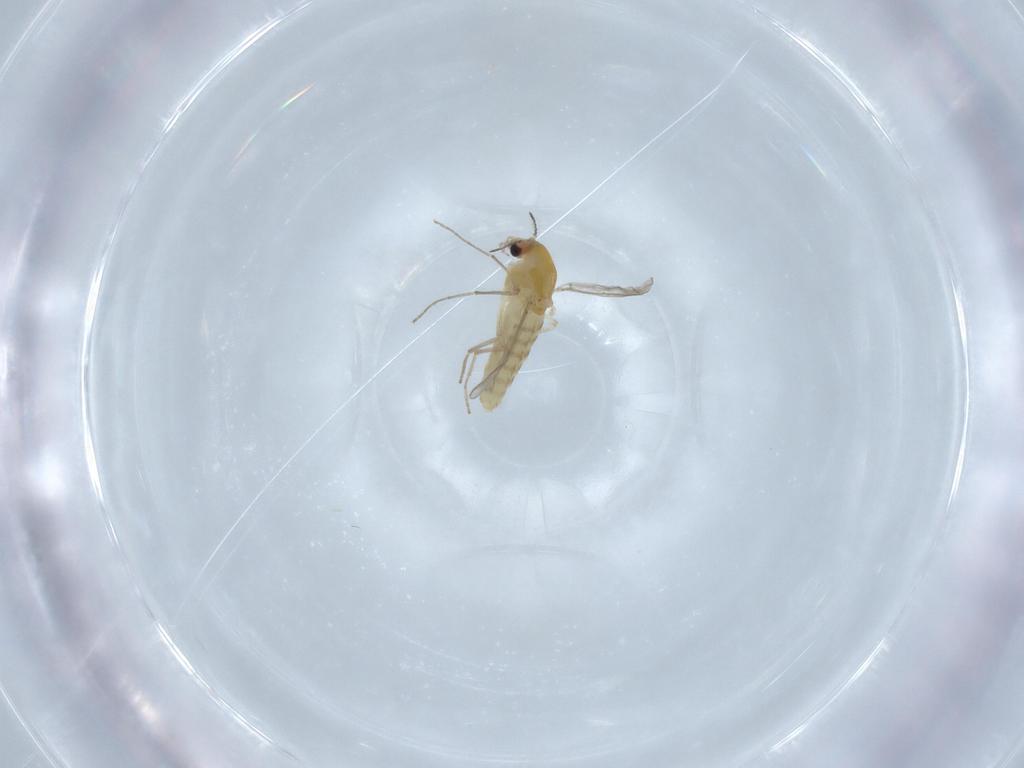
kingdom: Animalia
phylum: Arthropoda
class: Insecta
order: Diptera
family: Chironomidae
